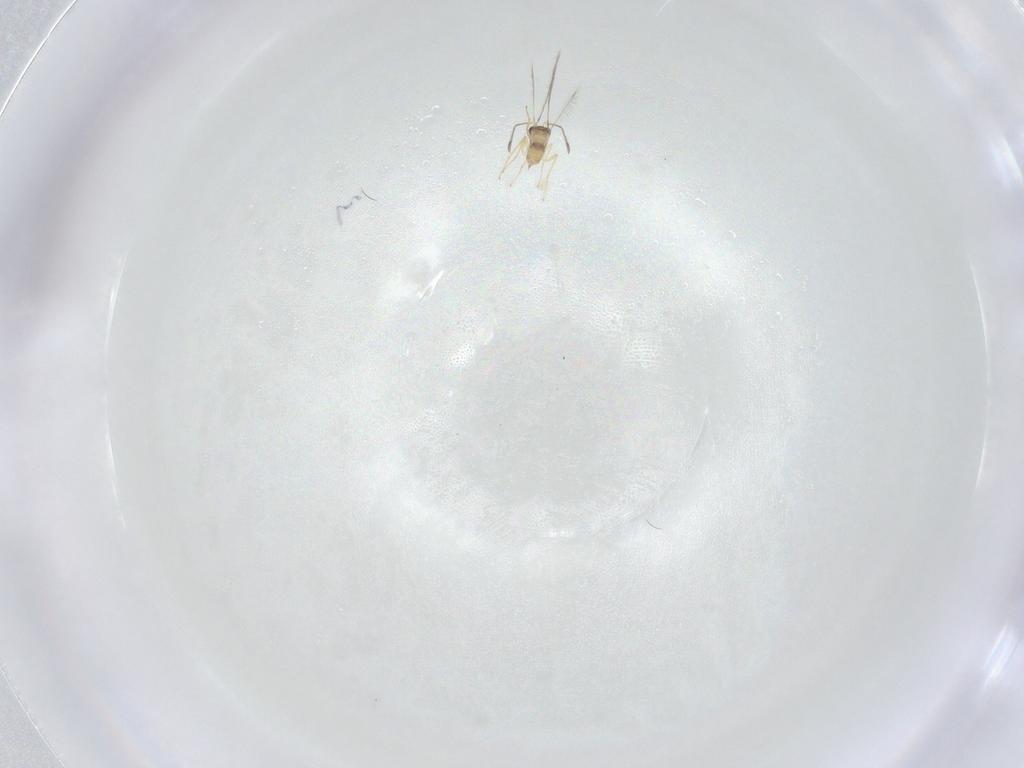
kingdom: Animalia
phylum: Arthropoda
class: Insecta
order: Hymenoptera
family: Mymaridae
